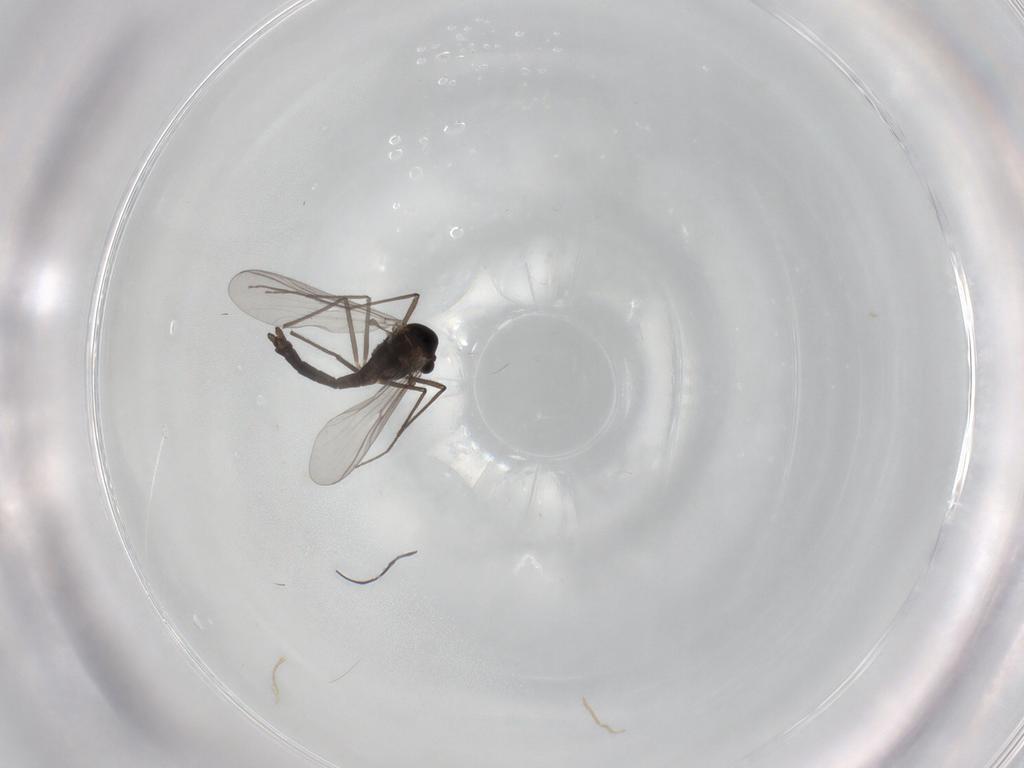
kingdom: Animalia
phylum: Arthropoda
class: Insecta
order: Diptera
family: Chironomidae
